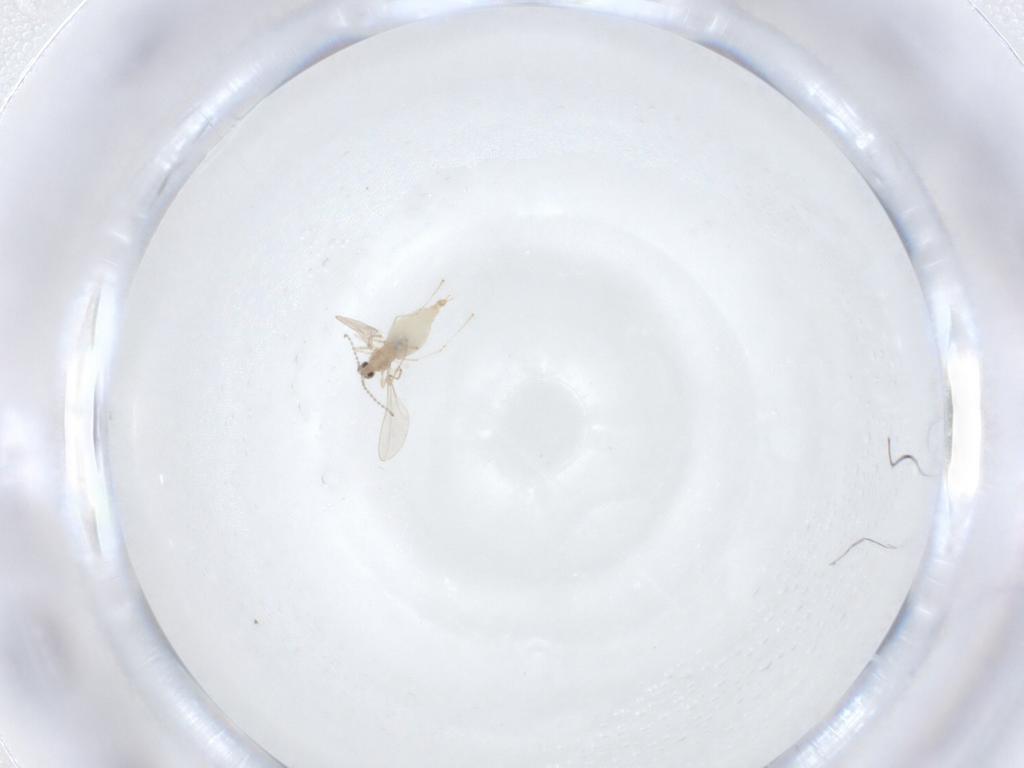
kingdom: Animalia
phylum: Arthropoda
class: Insecta
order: Diptera
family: Cecidomyiidae
